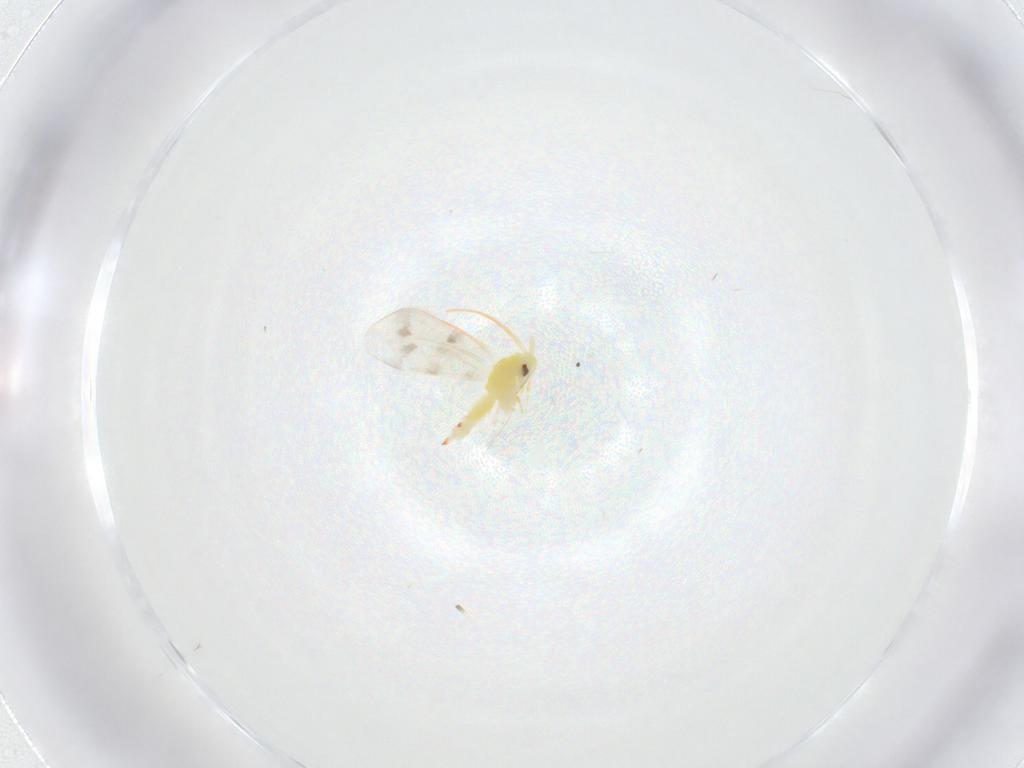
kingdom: Animalia
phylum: Arthropoda
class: Insecta
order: Hemiptera
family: Aleyrodidae
